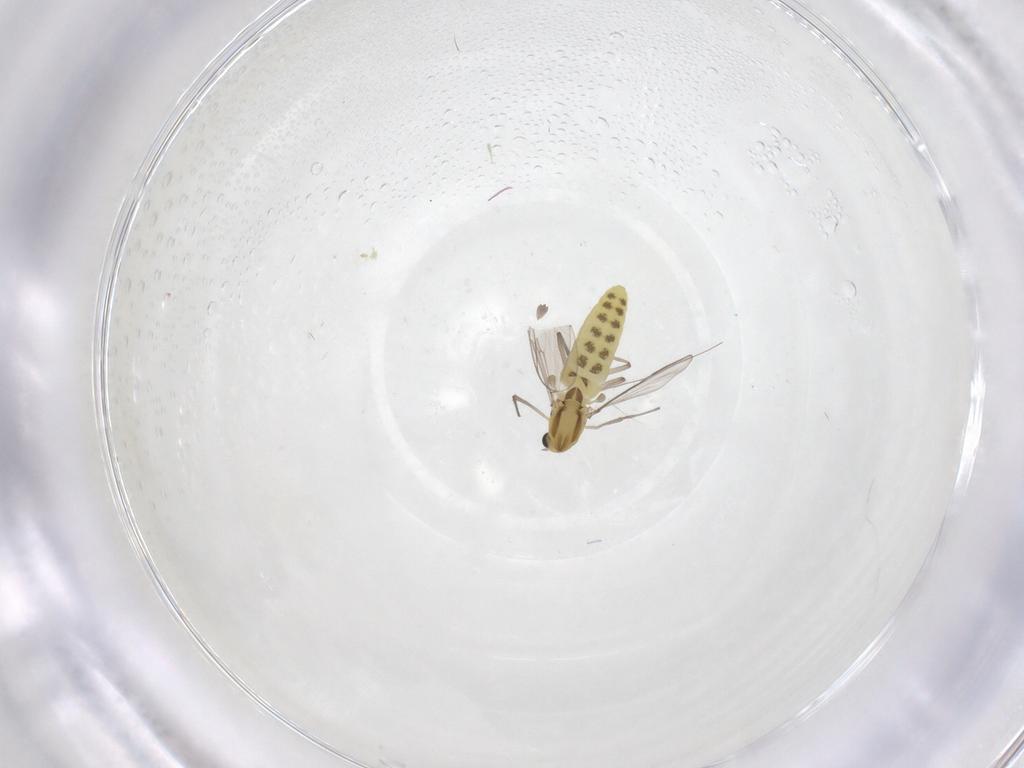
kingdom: Animalia
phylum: Arthropoda
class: Insecta
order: Diptera
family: Chironomidae
